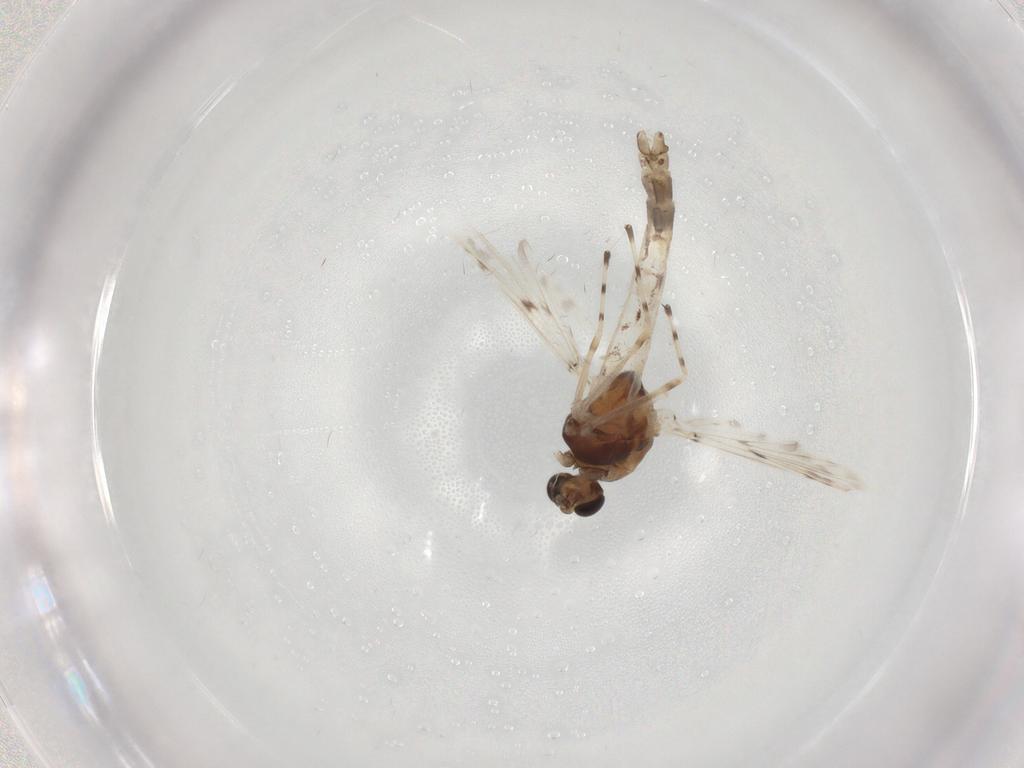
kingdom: Animalia
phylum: Arthropoda
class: Insecta
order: Diptera
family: Chironomidae
